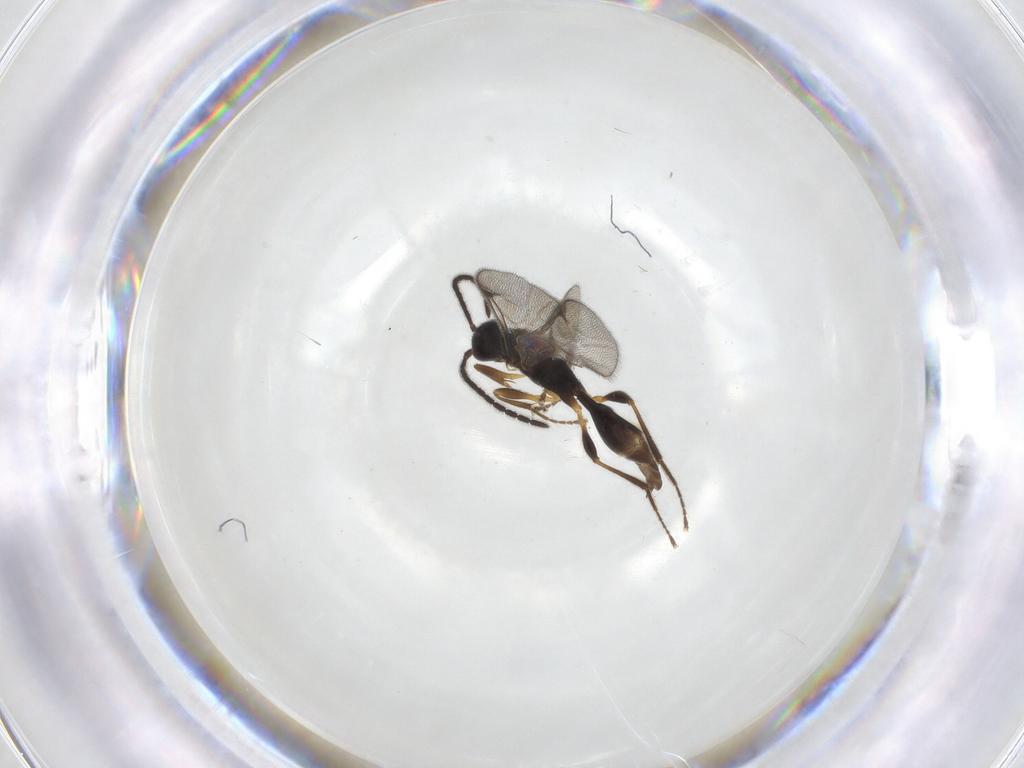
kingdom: Animalia
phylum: Arthropoda
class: Insecta
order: Hymenoptera
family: Proctotrupidae
